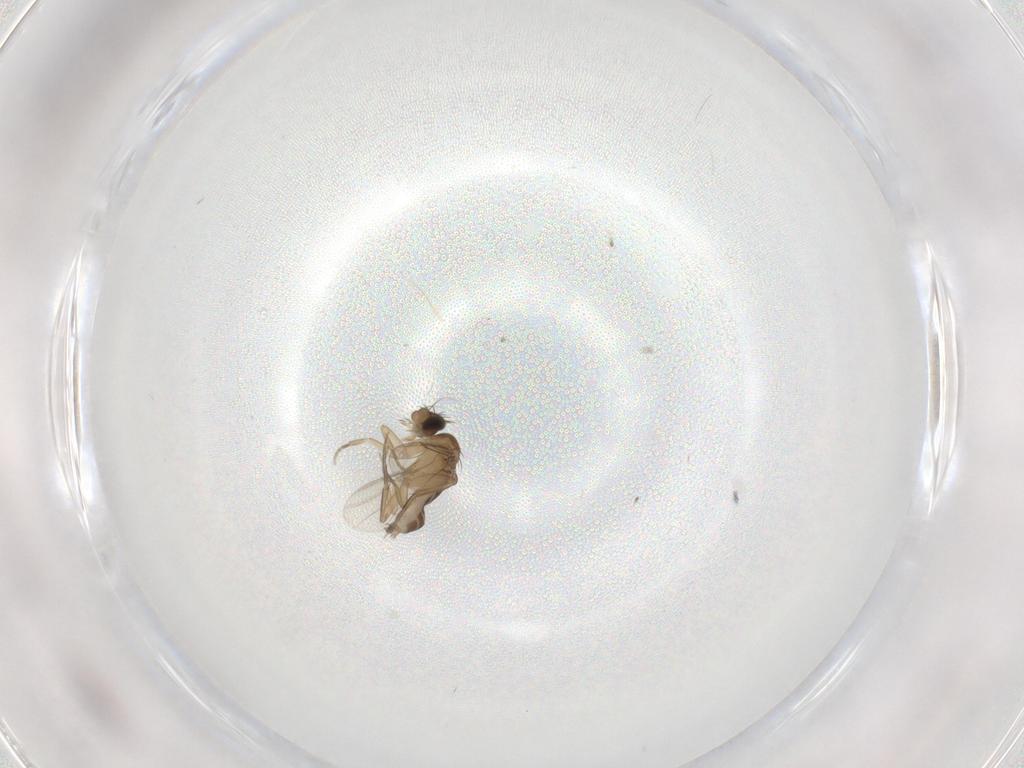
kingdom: Animalia
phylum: Arthropoda
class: Insecta
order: Diptera
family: Phoridae
